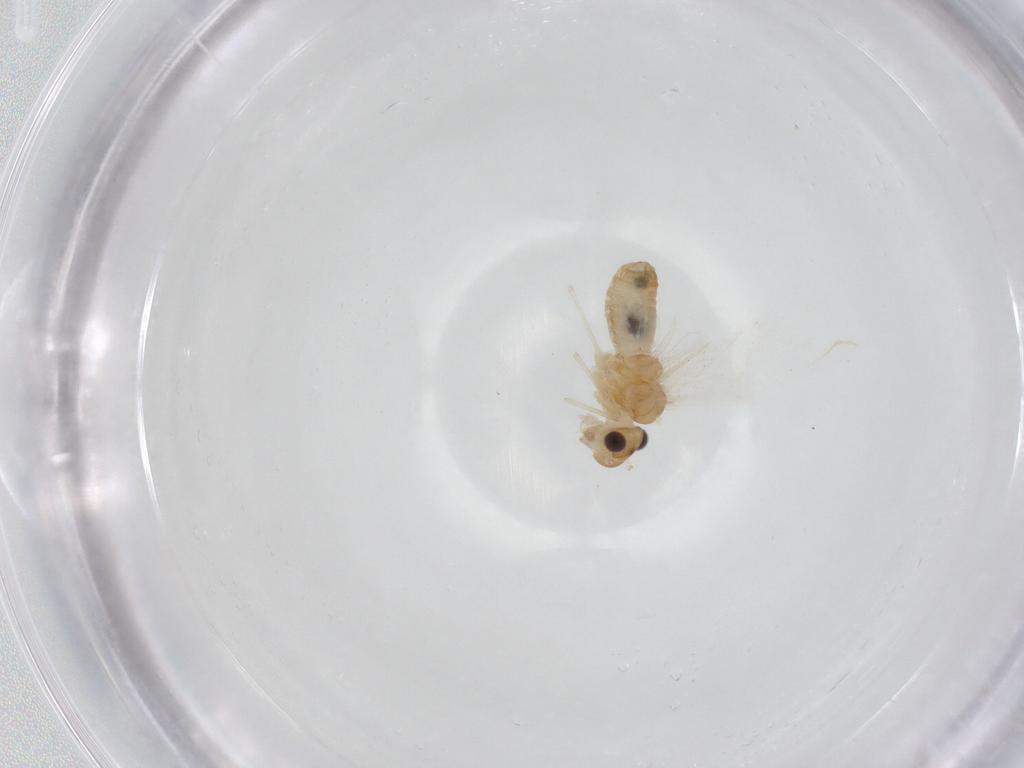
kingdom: Animalia
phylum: Arthropoda
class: Insecta
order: Psocodea
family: Philotarsidae
